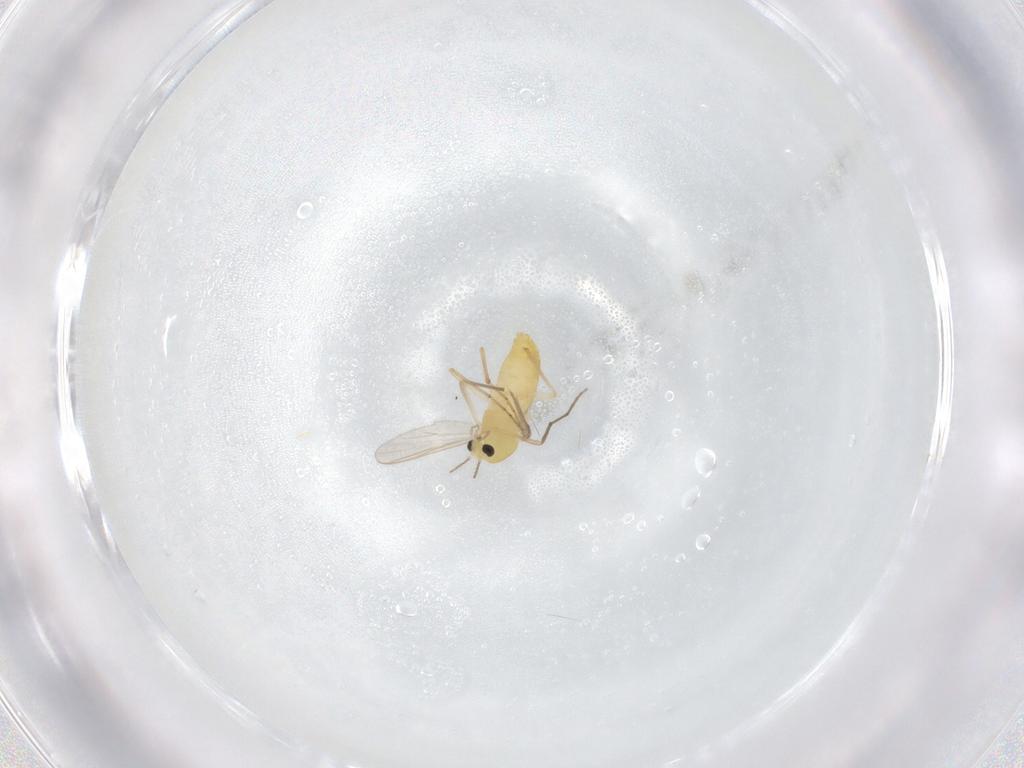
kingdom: Animalia
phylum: Arthropoda
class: Insecta
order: Diptera
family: Chironomidae
